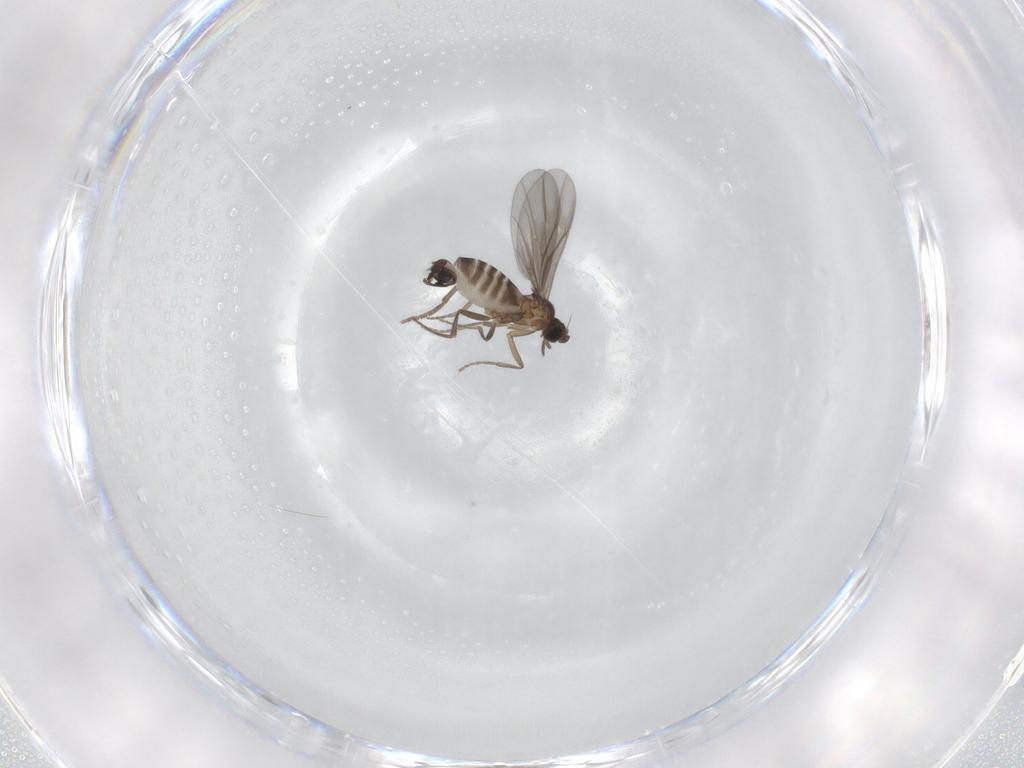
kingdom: Animalia
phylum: Arthropoda
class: Insecta
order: Diptera
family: Phoridae
